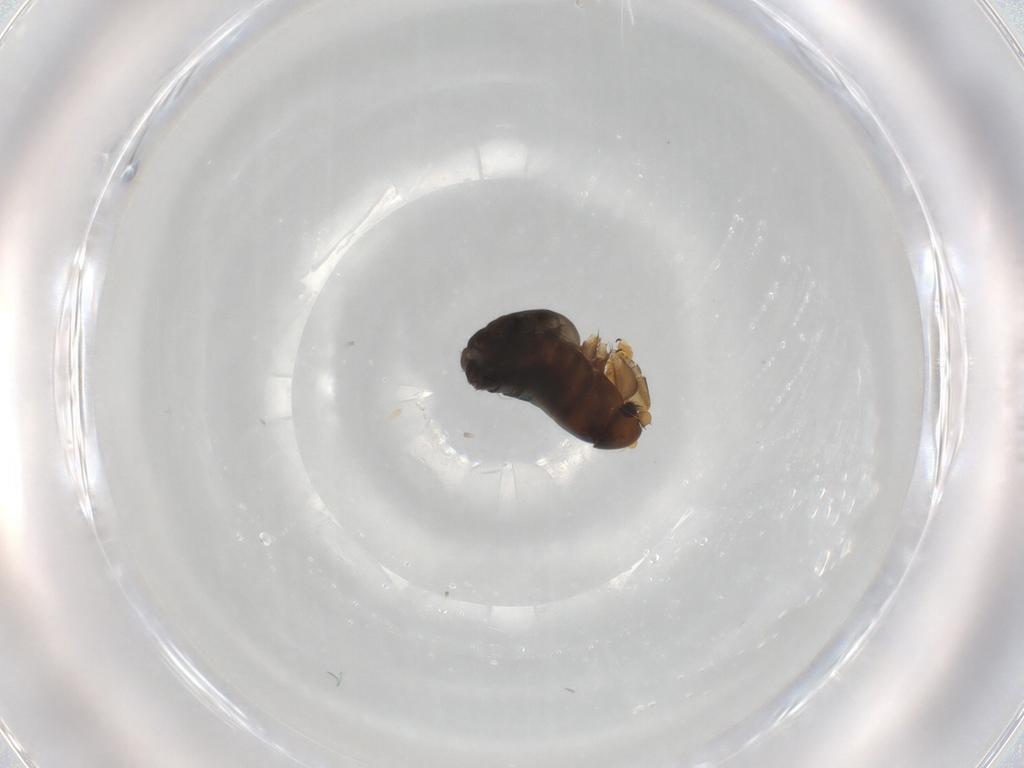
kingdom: Animalia
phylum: Arthropoda
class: Insecta
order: Diptera
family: Phoridae
